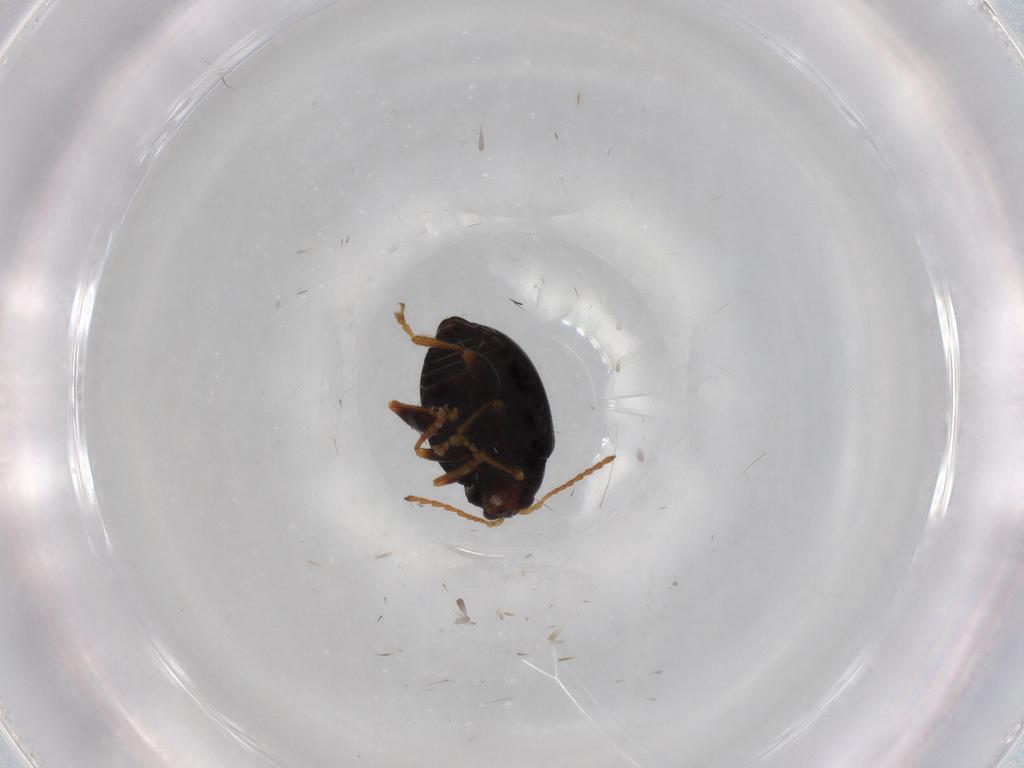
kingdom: Animalia
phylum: Arthropoda
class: Insecta
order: Coleoptera
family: Chrysomelidae
